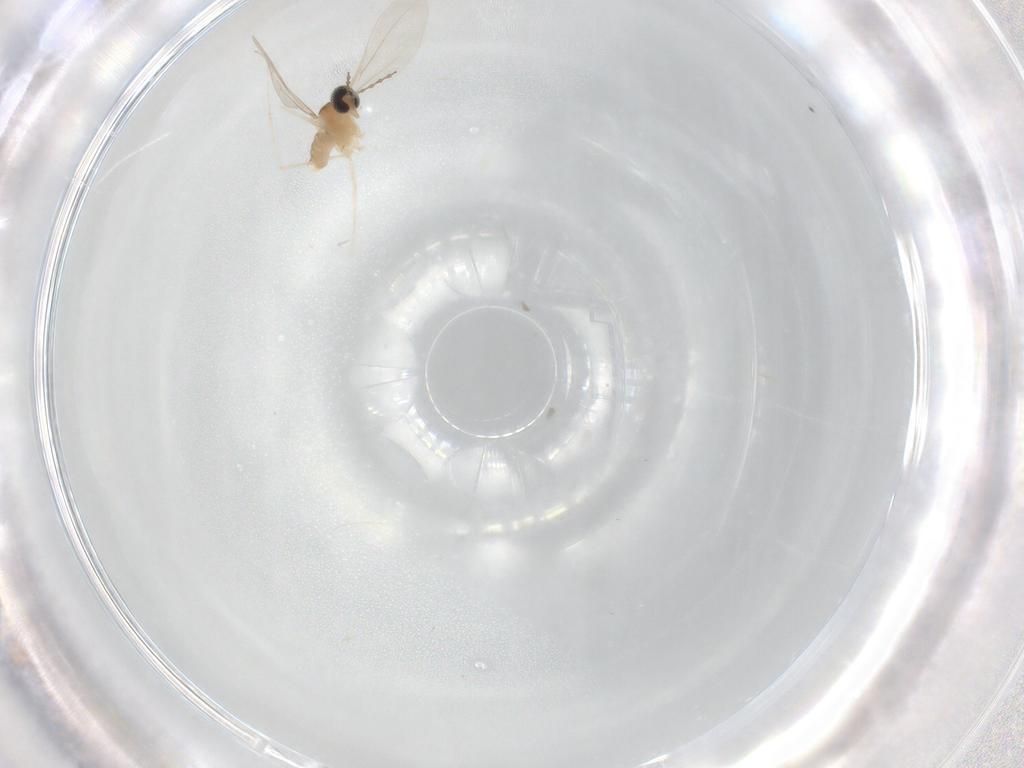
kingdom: Animalia
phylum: Arthropoda
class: Insecta
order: Diptera
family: Cecidomyiidae
